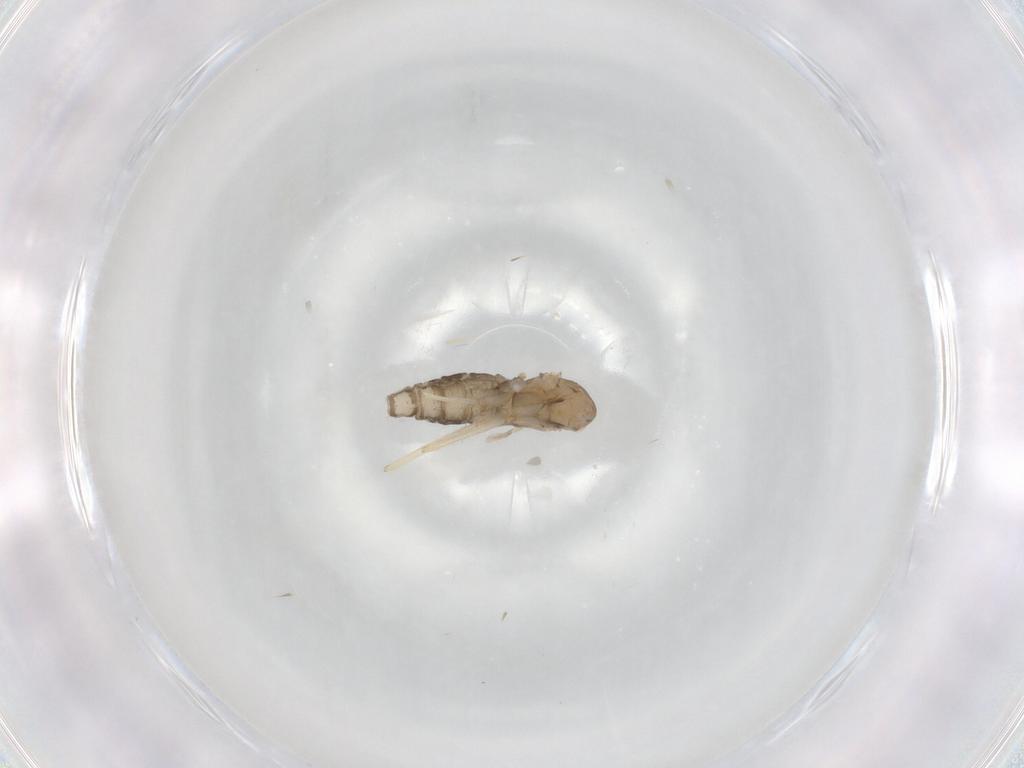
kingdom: Animalia
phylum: Arthropoda
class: Insecta
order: Diptera
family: Cecidomyiidae
